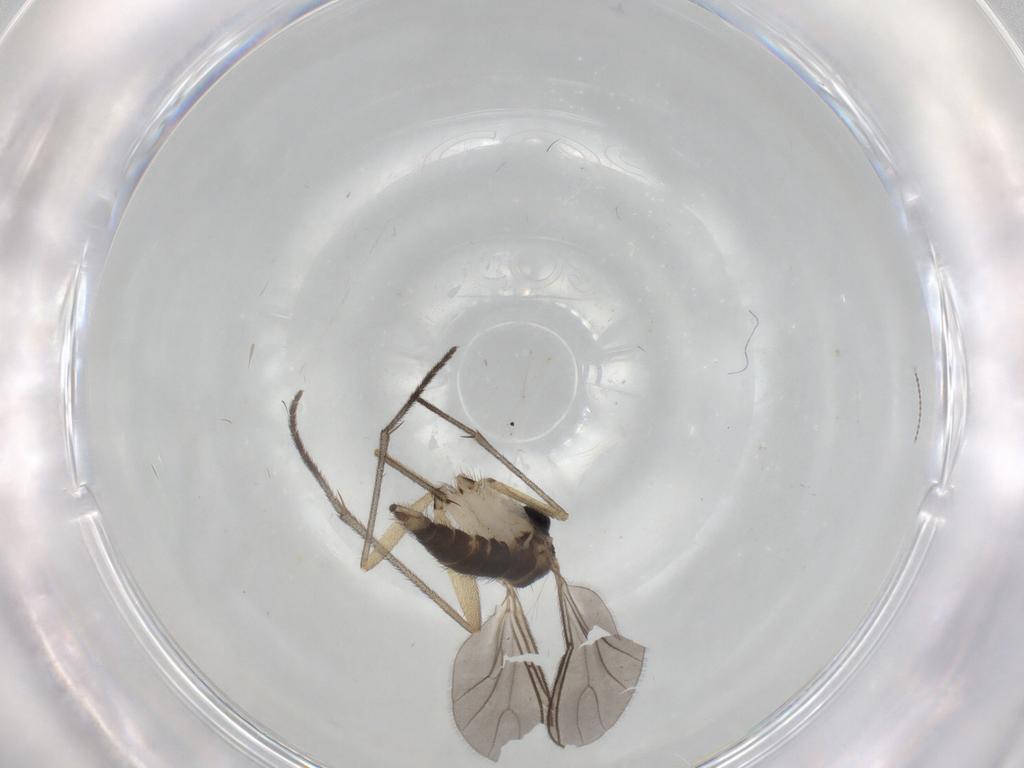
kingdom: Animalia
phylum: Arthropoda
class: Insecta
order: Diptera
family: Sciaridae
